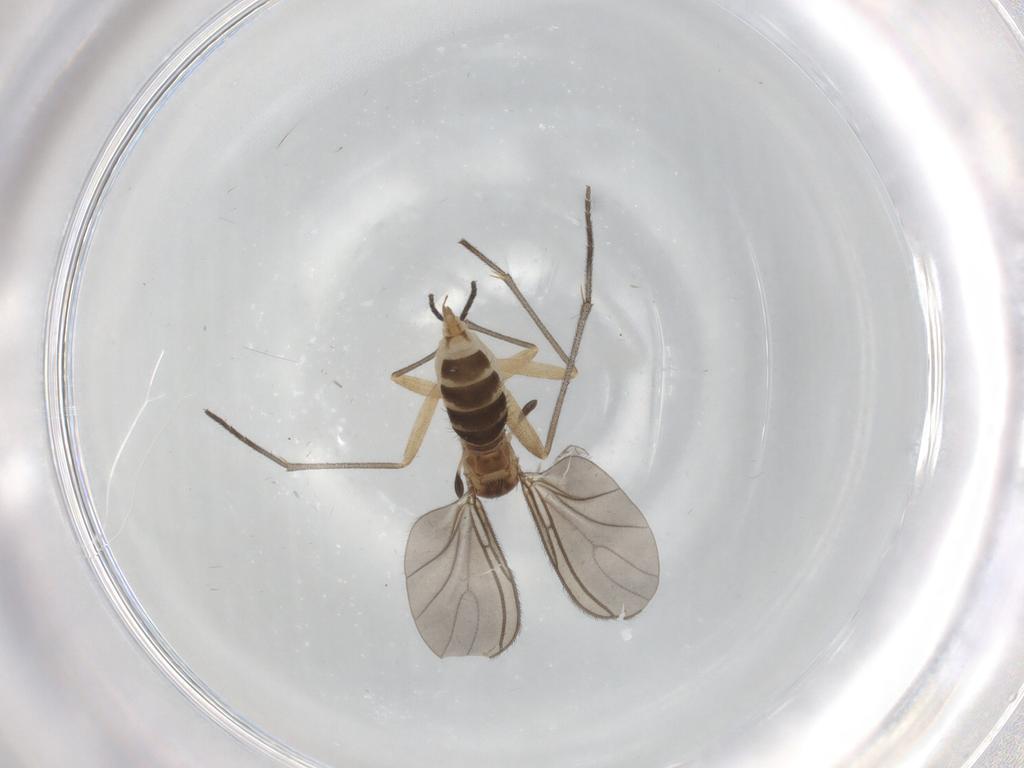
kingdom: Animalia
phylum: Arthropoda
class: Insecta
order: Diptera
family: Sciaridae
